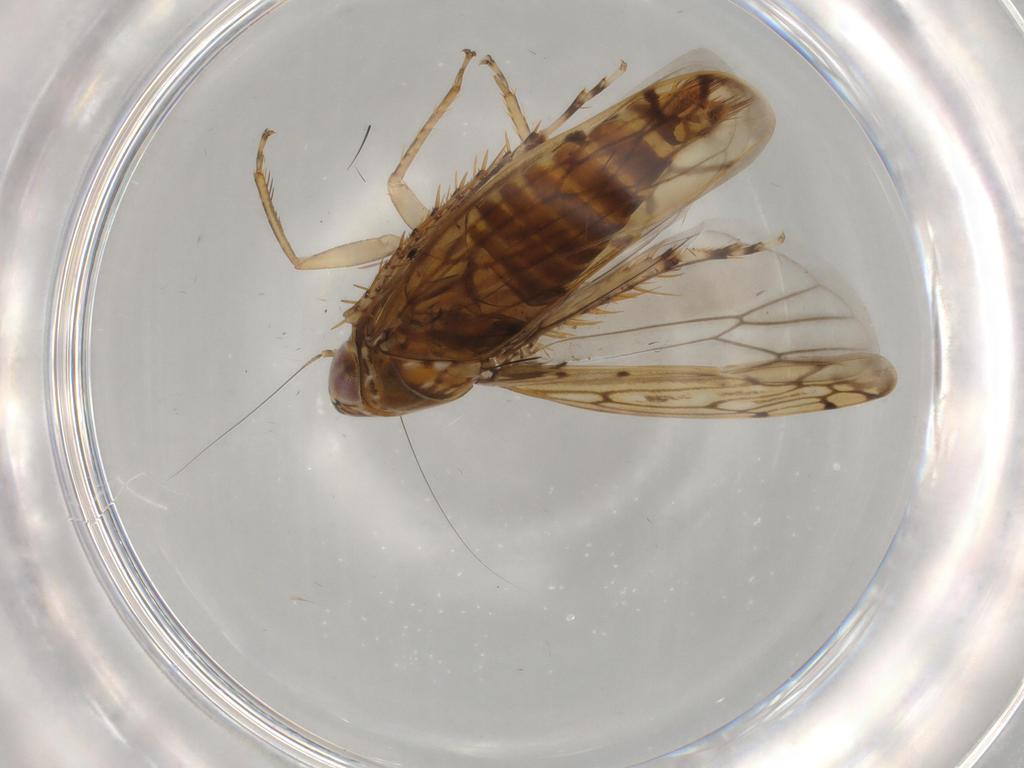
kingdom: Animalia
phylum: Arthropoda
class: Insecta
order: Hemiptera
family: Cicadellidae
